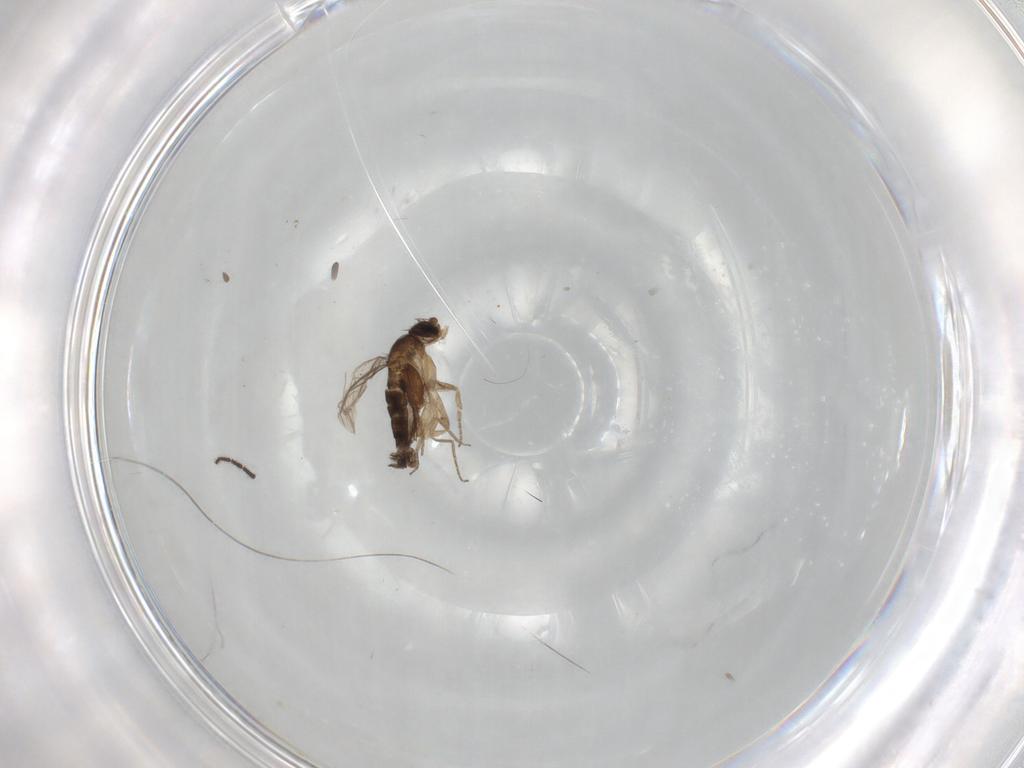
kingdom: Animalia
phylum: Arthropoda
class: Insecta
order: Diptera
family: Phoridae
